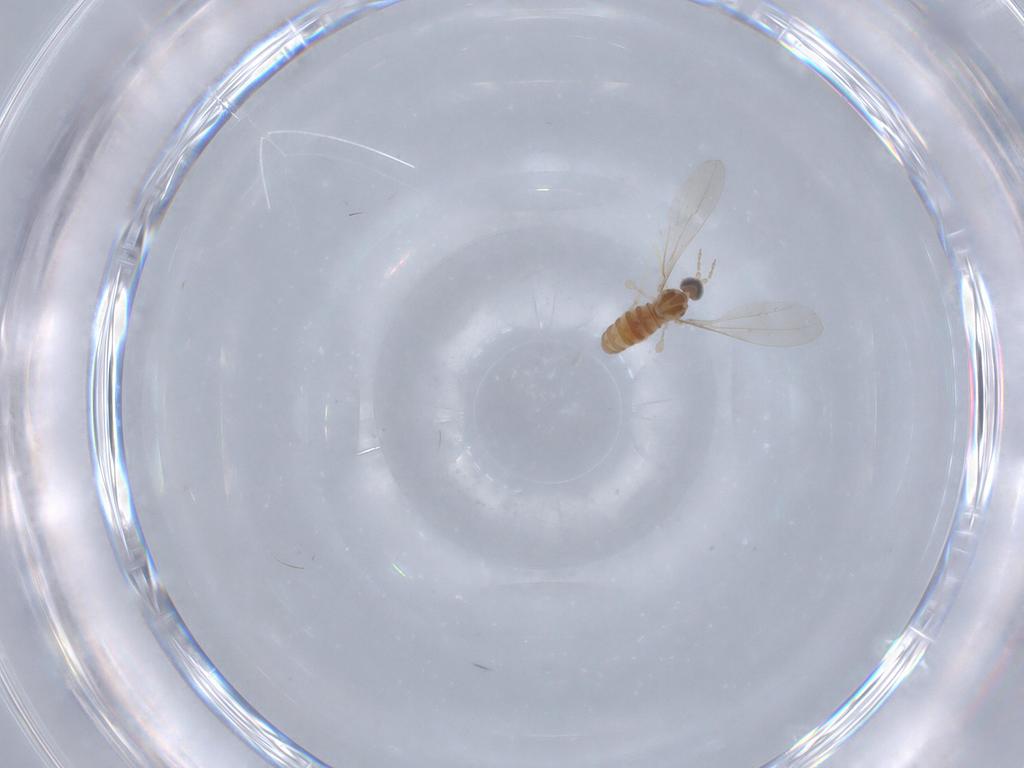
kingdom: Animalia
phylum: Arthropoda
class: Insecta
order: Diptera
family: Cecidomyiidae
